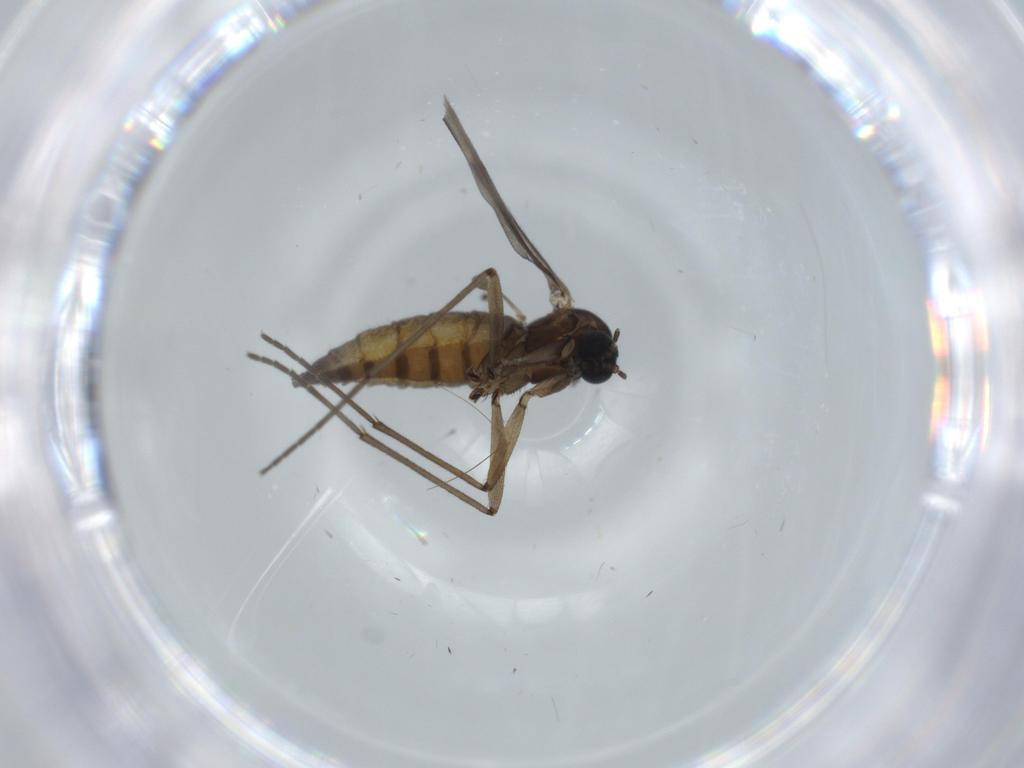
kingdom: Animalia
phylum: Arthropoda
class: Insecta
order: Diptera
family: Sciaridae
